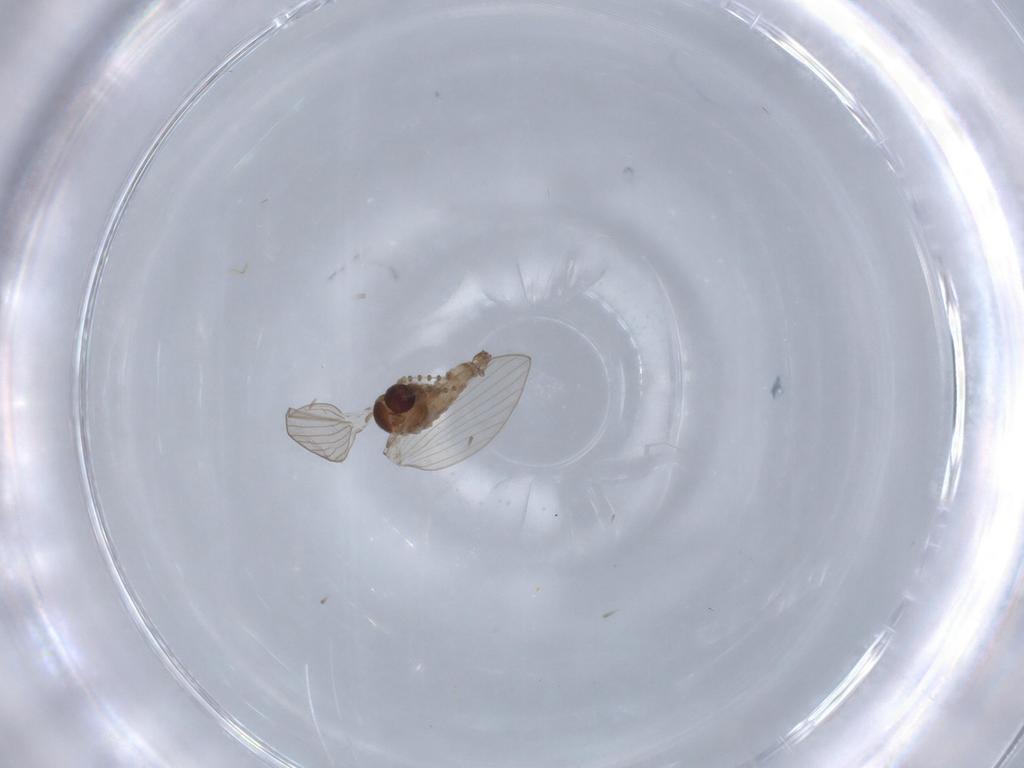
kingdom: Animalia
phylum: Arthropoda
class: Insecta
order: Diptera
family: Psychodidae
